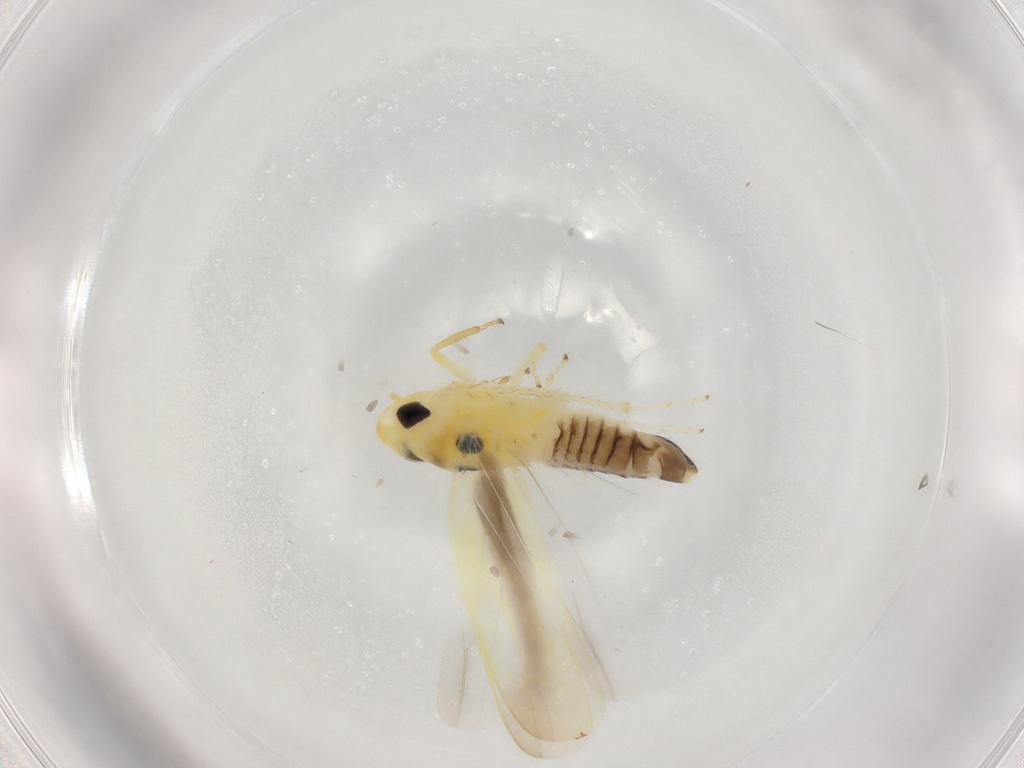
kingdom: Animalia
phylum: Arthropoda
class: Insecta
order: Hemiptera
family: Cicadellidae
